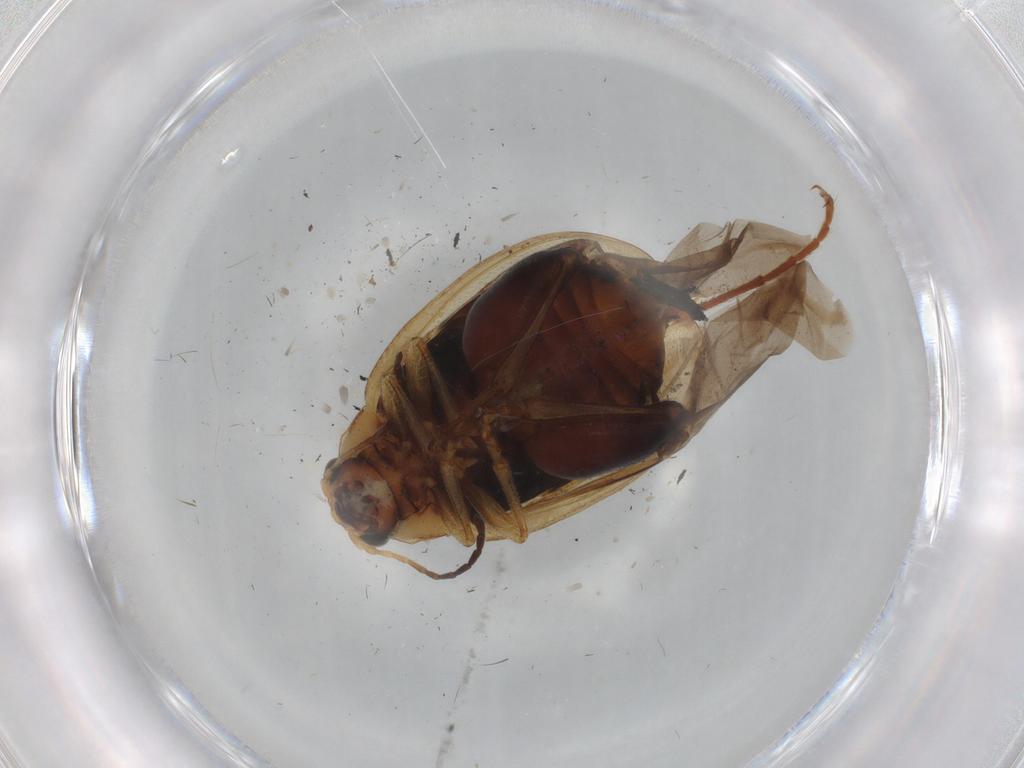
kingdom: Animalia
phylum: Arthropoda
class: Insecta
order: Coleoptera
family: Chrysomelidae
